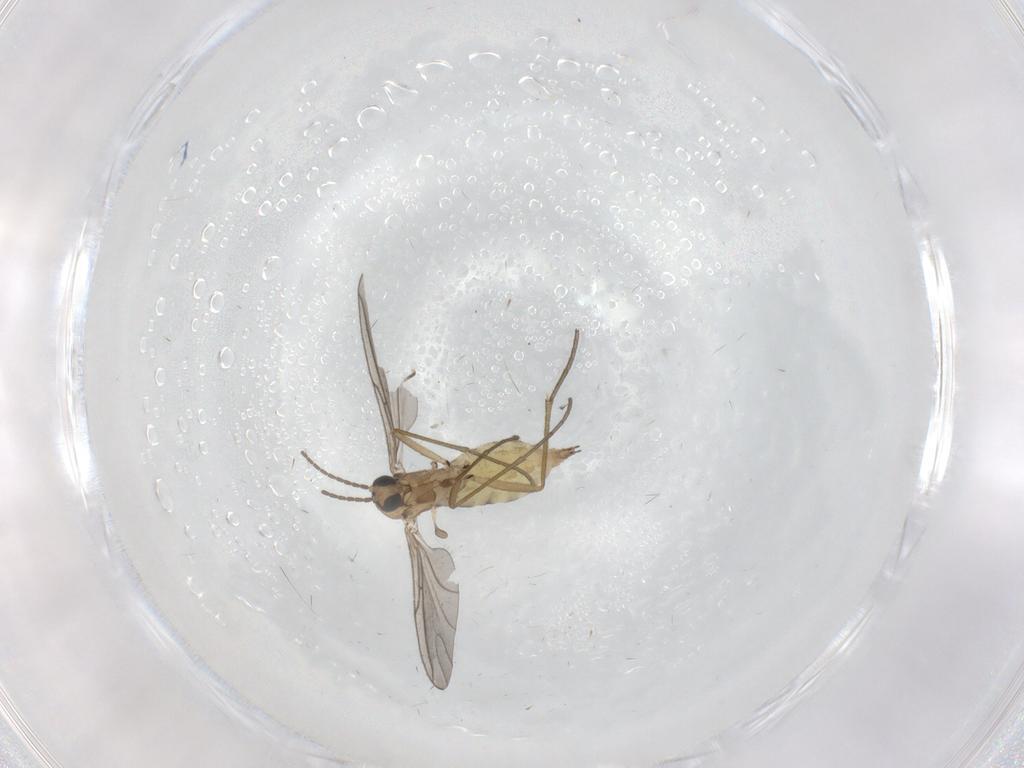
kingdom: Animalia
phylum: Arthropoda
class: Insecta
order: Diptera
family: Sciaridae
